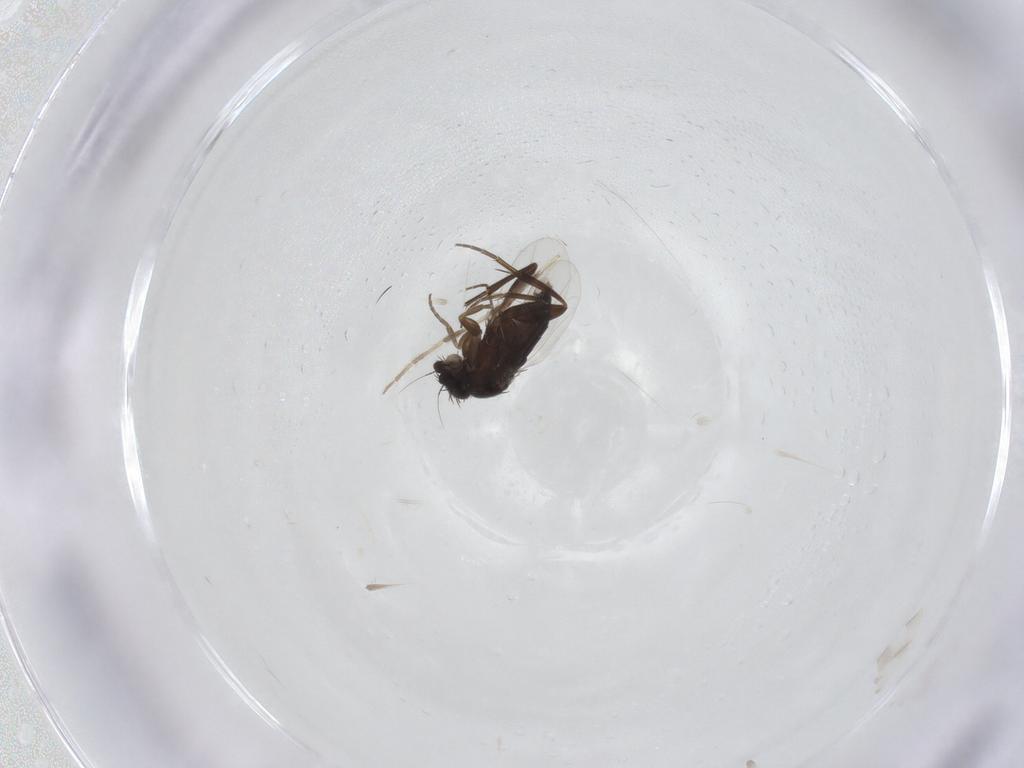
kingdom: Animalia
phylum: Arthropoda
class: Insecta
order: Diptera
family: Phoridae
